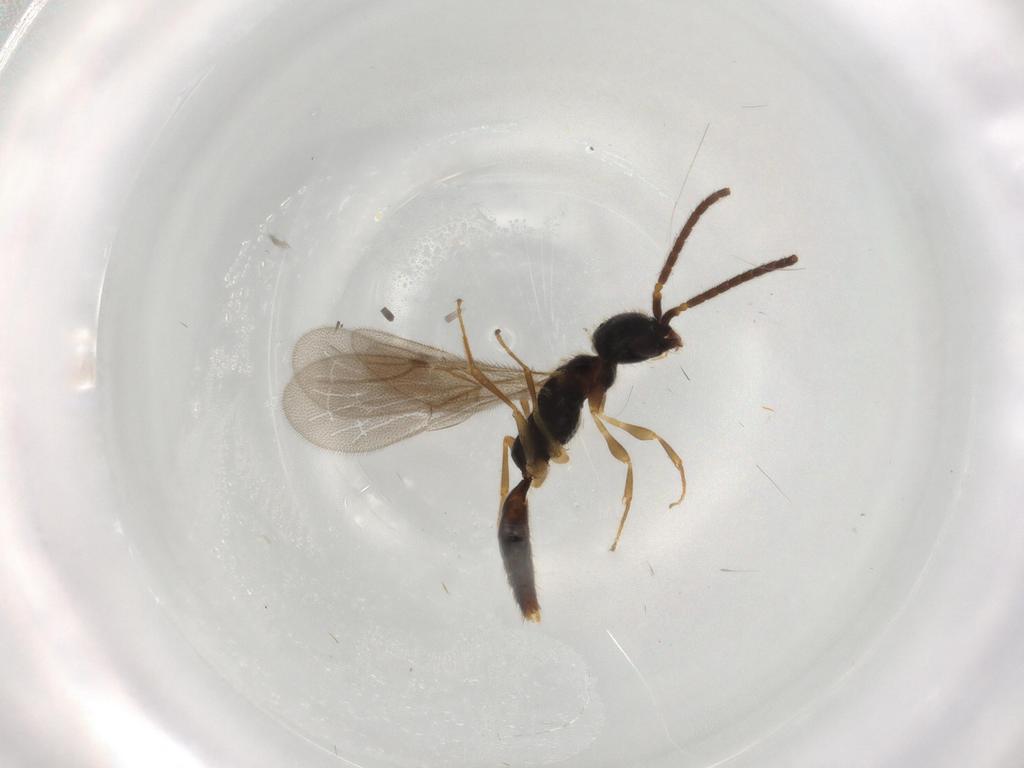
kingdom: Animalia
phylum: Arthropoda
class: Insecta
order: Hymenoptera
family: Bethylidae
